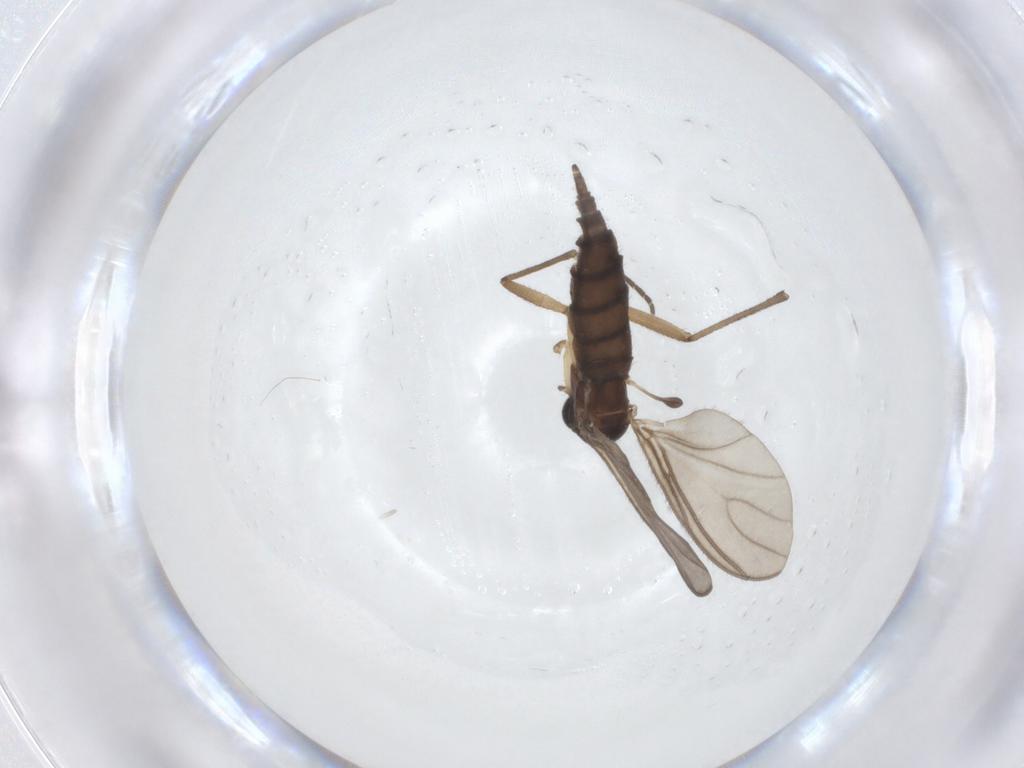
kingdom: Animalia
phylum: Arthropoda
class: Insecta
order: Diptera
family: Sciaridae
